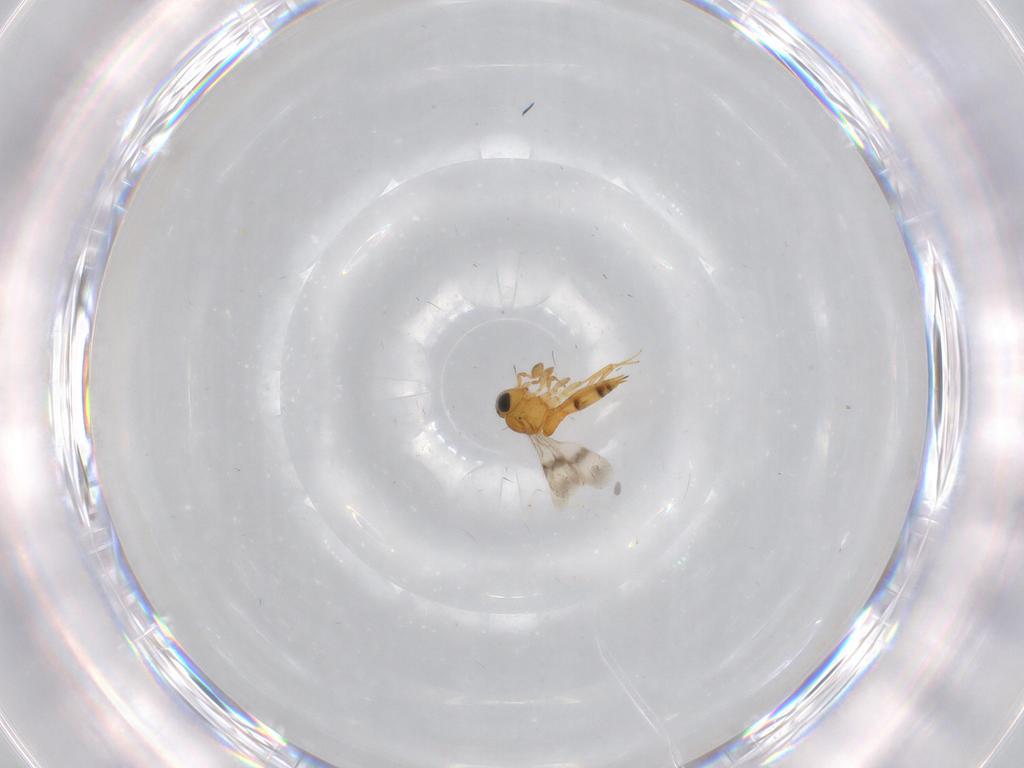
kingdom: Animalia
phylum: Arthropoda
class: Insecta
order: Hymenoptera
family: Scelionidae
